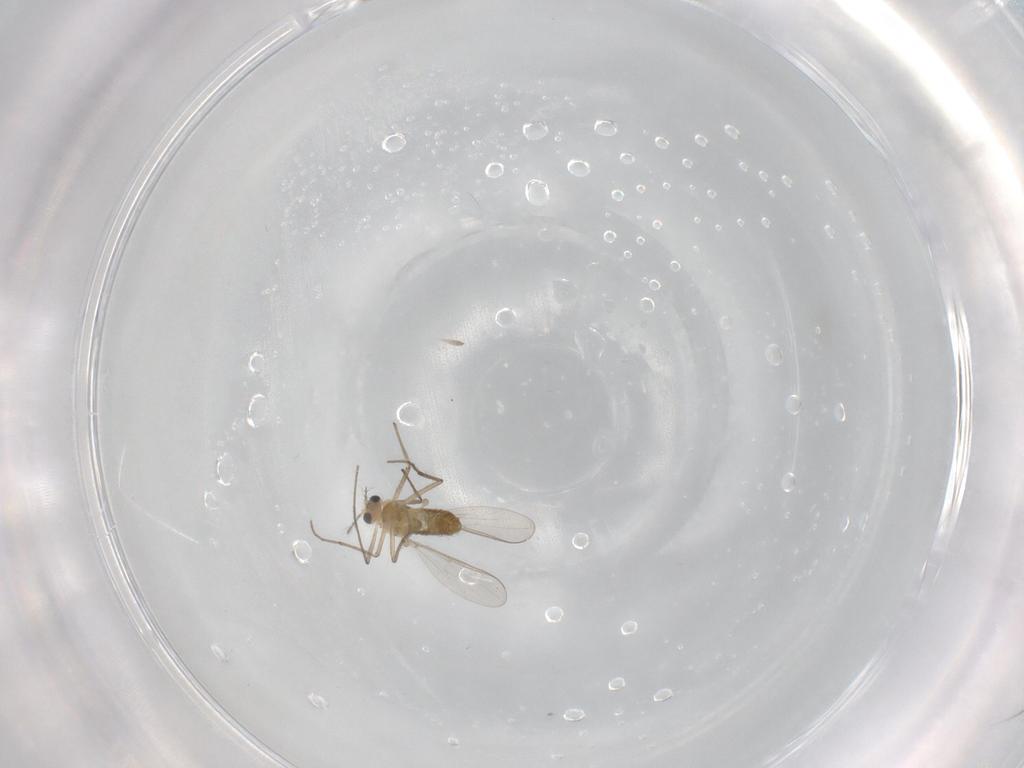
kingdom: Animalia
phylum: Arthropoda
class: Insecta
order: Diptera
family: Chironomidae
